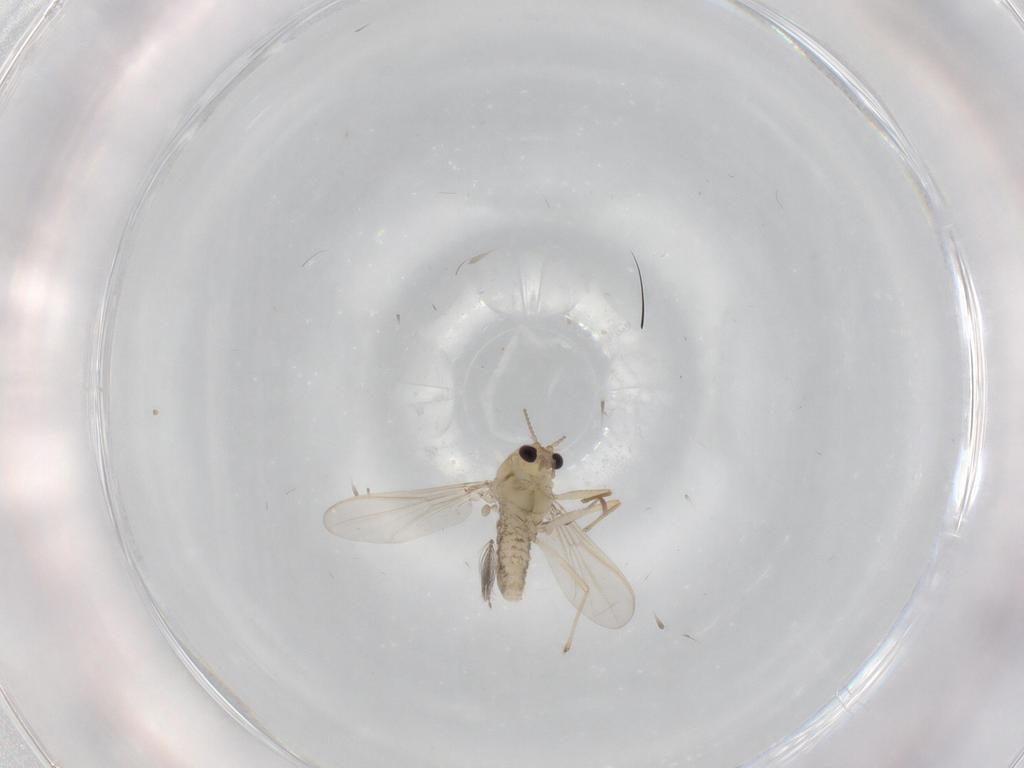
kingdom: Animalia
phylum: Arthropoda
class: Insecta
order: Diptera
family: Chironomidae
